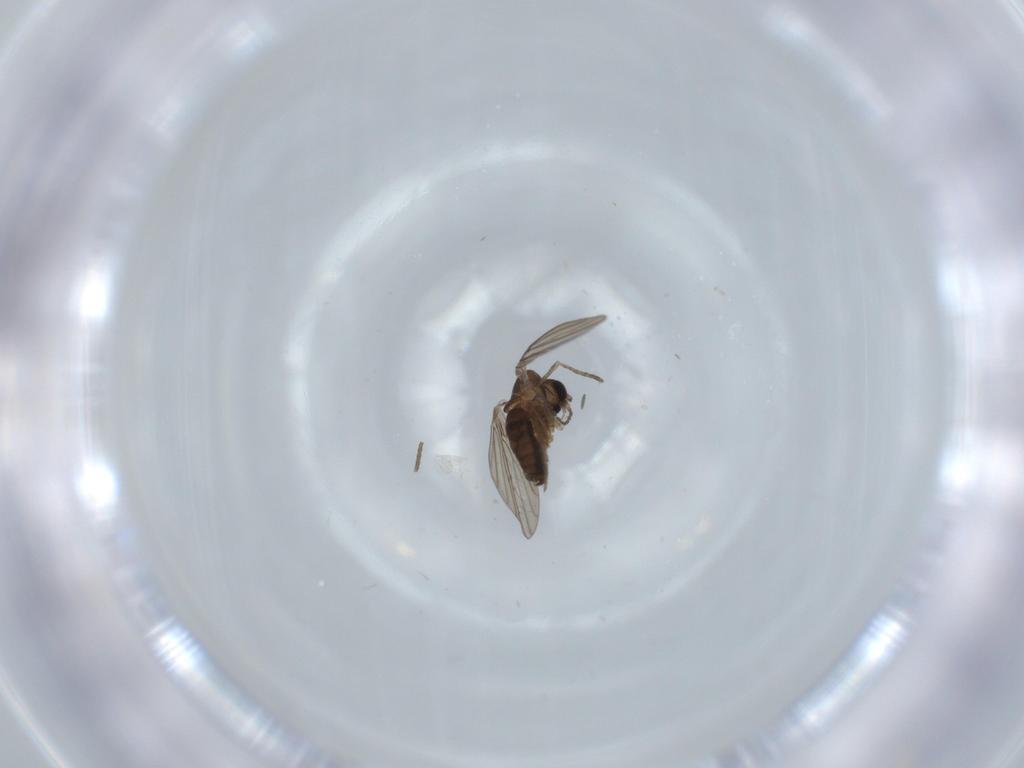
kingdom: Animalia
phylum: Arthropoda
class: Insecta
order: Diptera
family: Cecidomyiidae
